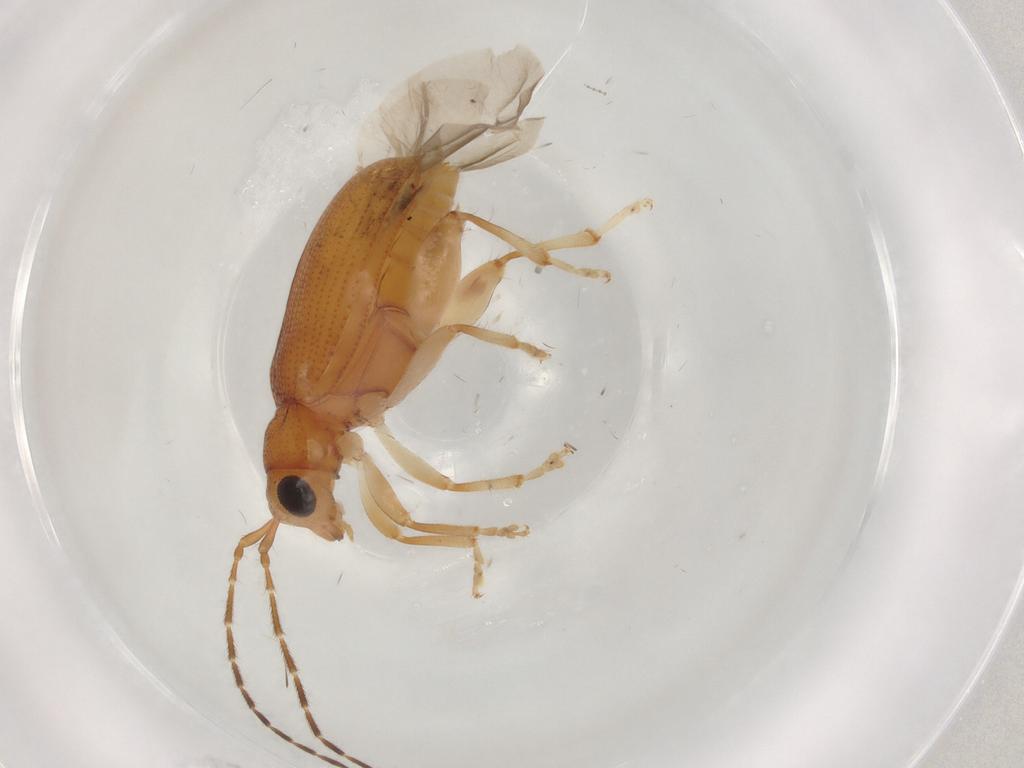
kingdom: Animalia
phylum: Arthropoda
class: Insecta
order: Coleoptera
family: Chrysomelidae
